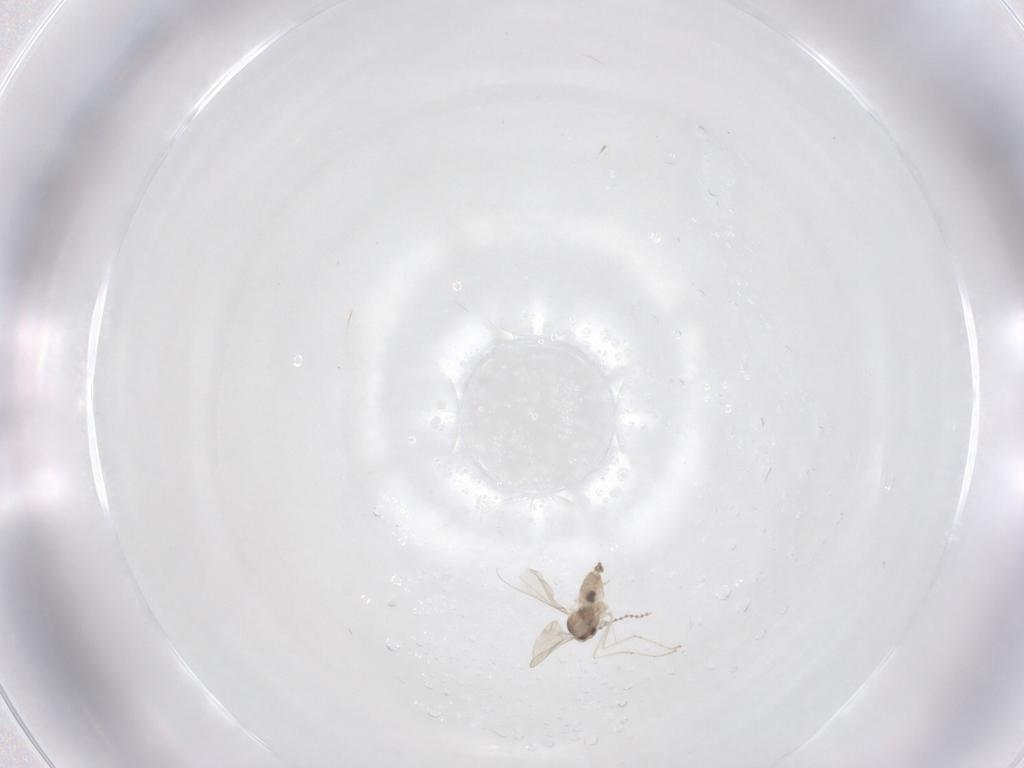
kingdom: Animalia
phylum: Arthropoda
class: Insecta
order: Diptera
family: Cecidomyiidae
